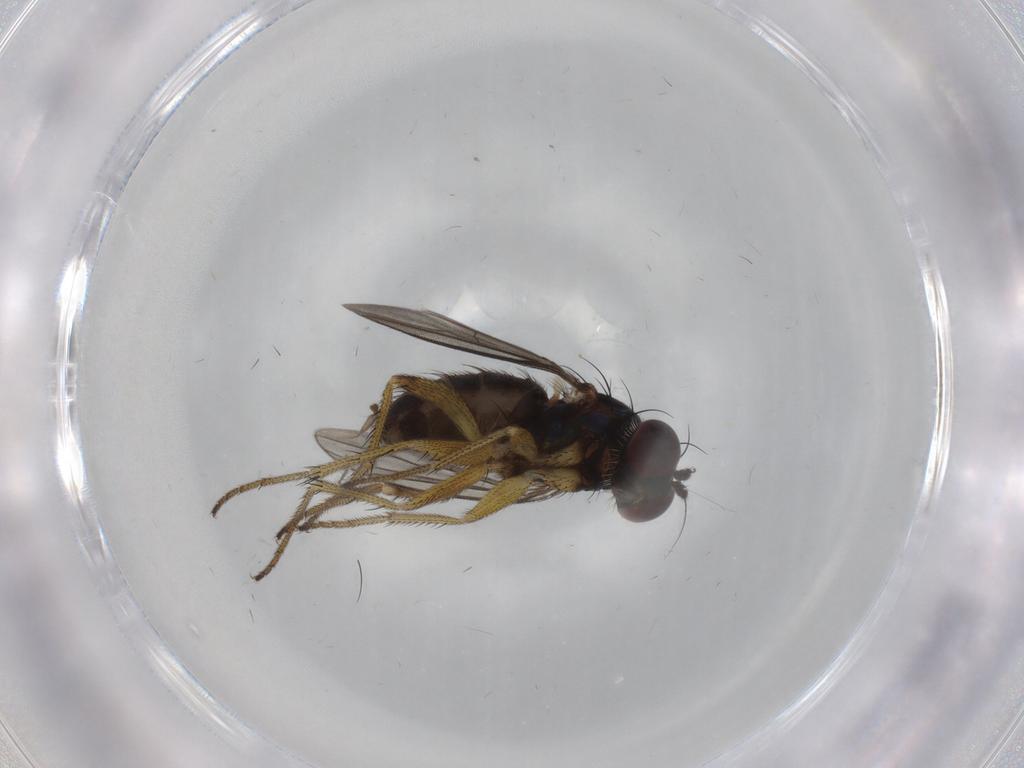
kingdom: Animalia
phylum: Arthropoda
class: Insecta
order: Diptera
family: Dolichopodidae
